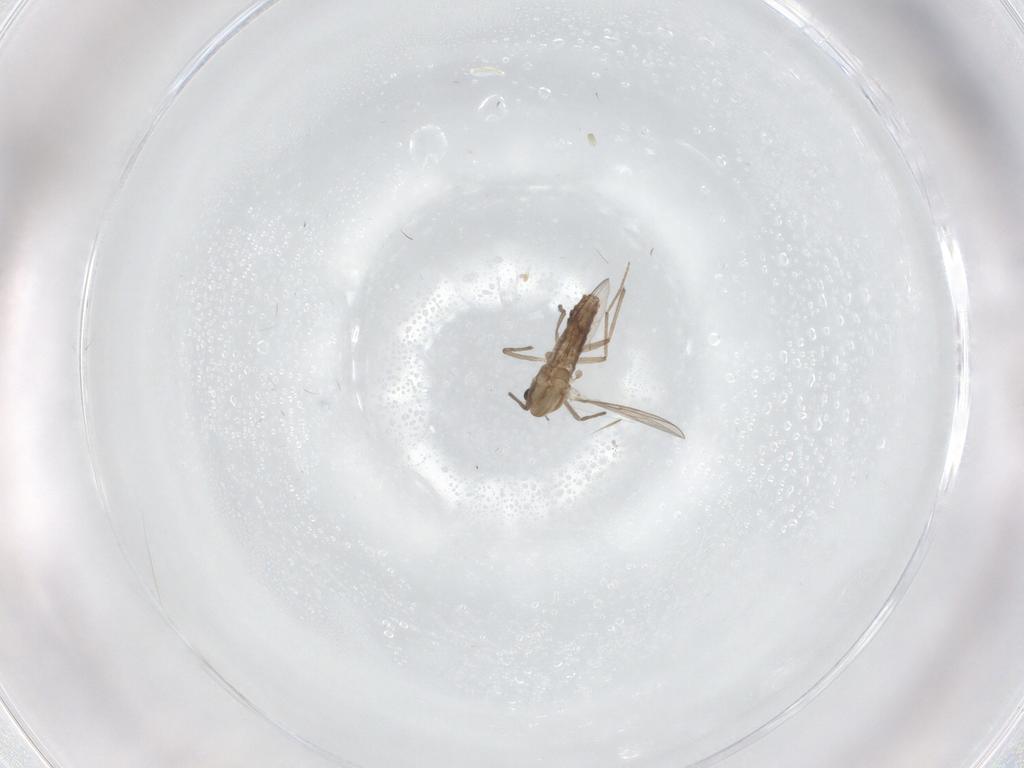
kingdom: Animalia
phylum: Arthropoda
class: Insecta
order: Diptera
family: Chironomidae
